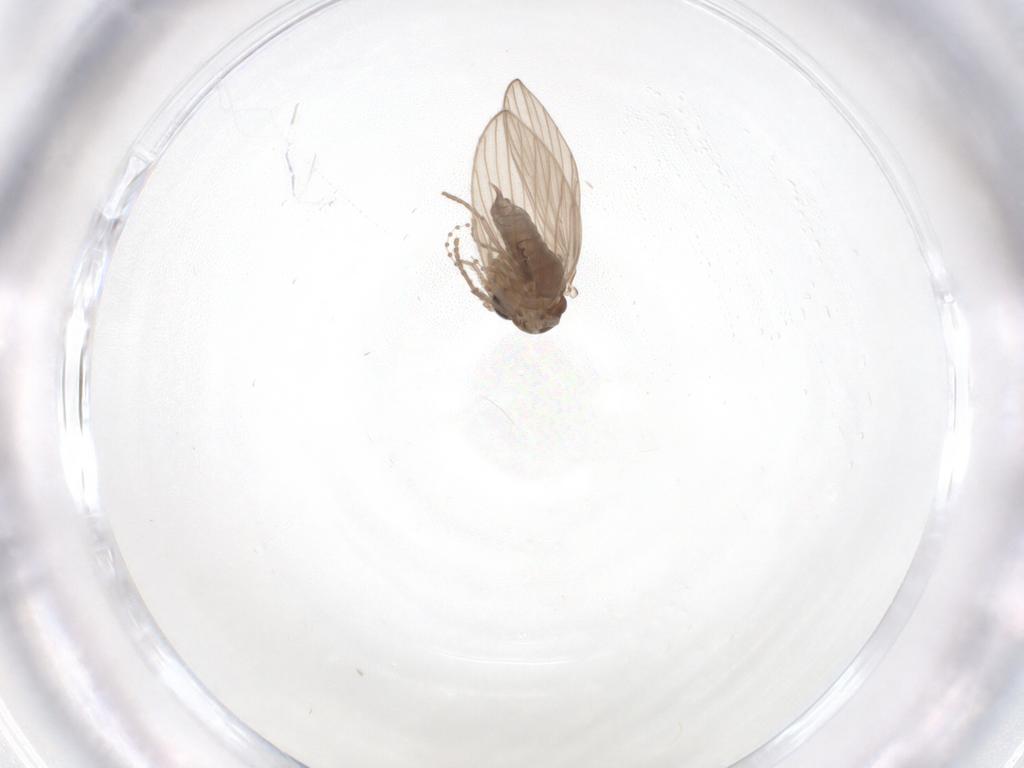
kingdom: Animalia
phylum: Arthropoda
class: Insecta
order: Diptera
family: Psychodidae
